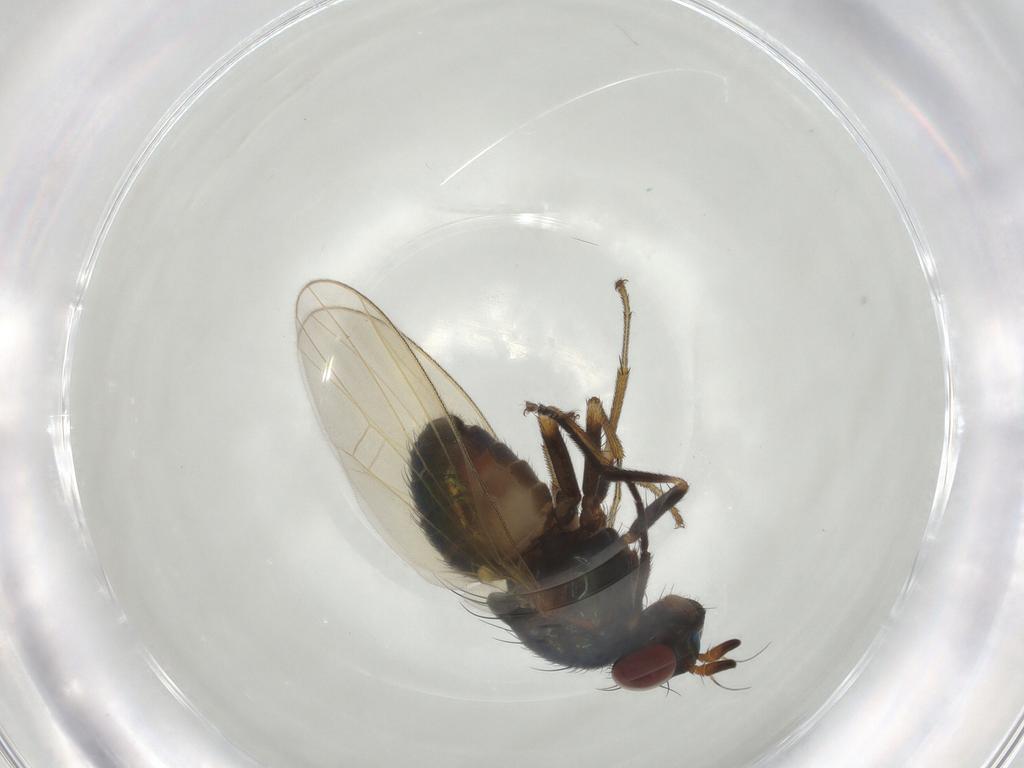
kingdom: Animalia
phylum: Arthropoda
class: Insecta
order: Diptera
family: Lauxaniidae
